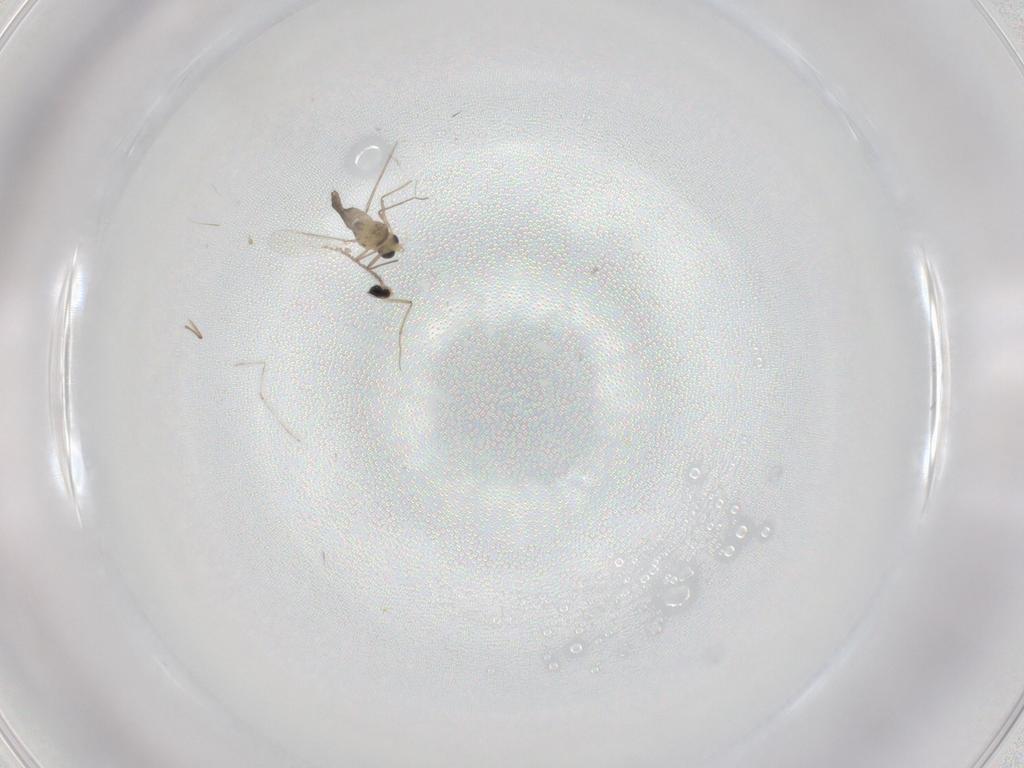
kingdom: Animalia
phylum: Arthropoda
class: Insecta
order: Diptera
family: Chironomidae
